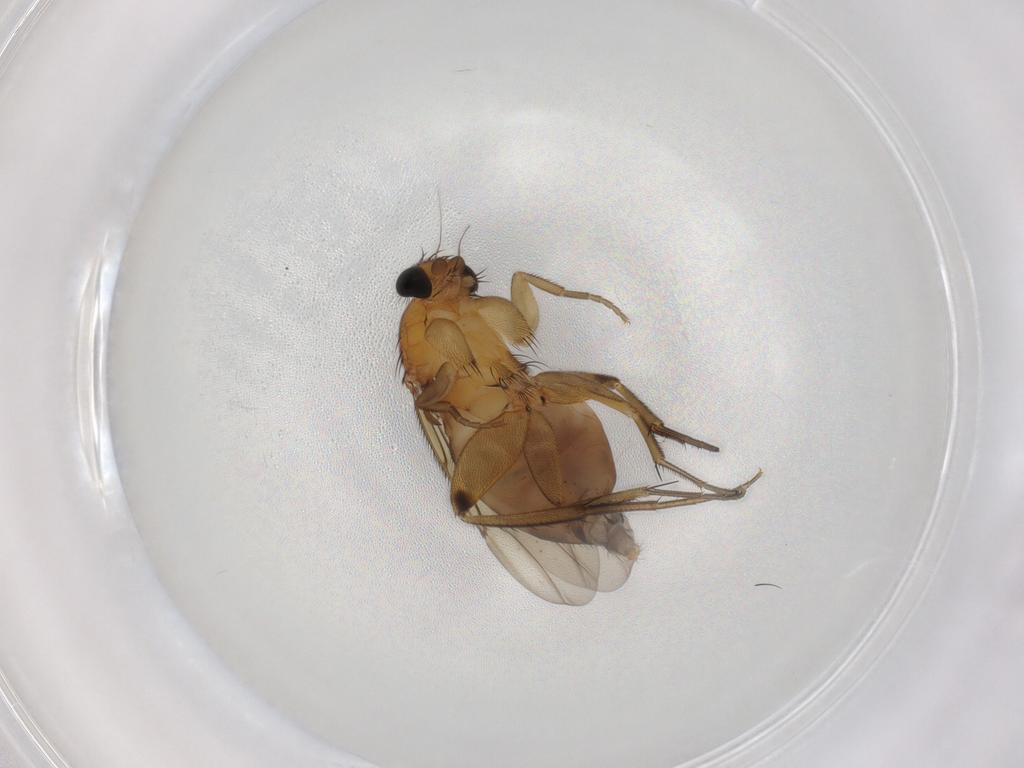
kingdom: Animalia
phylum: Arthropoda
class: Insecta
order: Diptera
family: Phoridae
